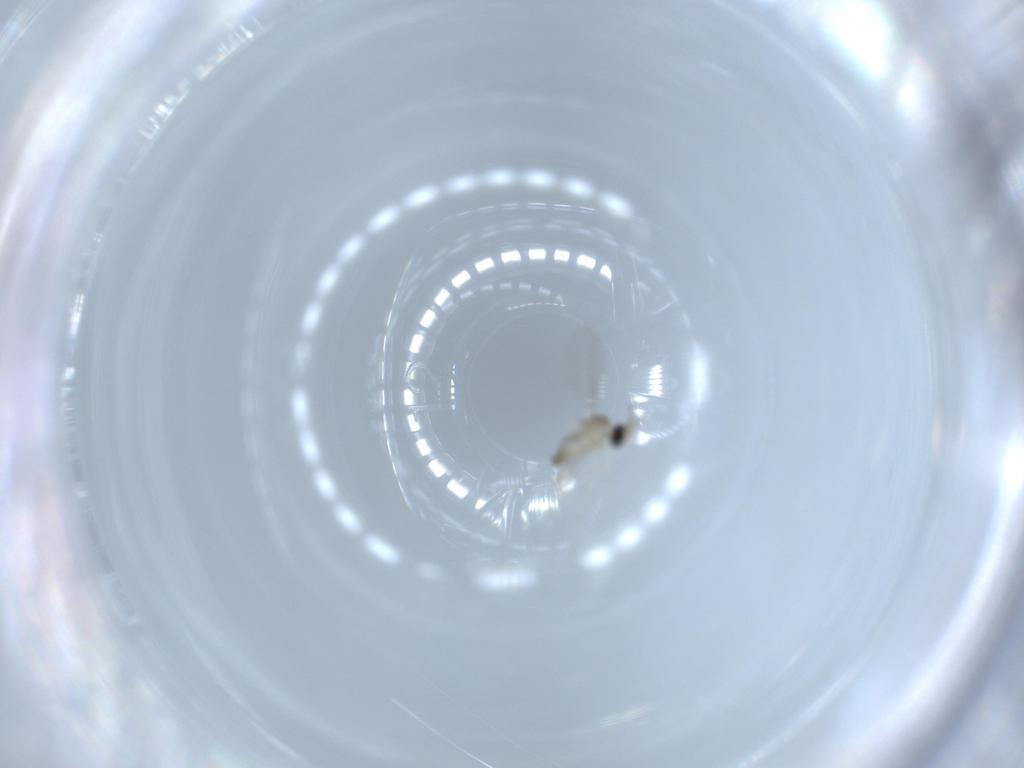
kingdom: Animalia
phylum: Arthropoda
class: Insecta
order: Diptera
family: Cecidomyiidae
